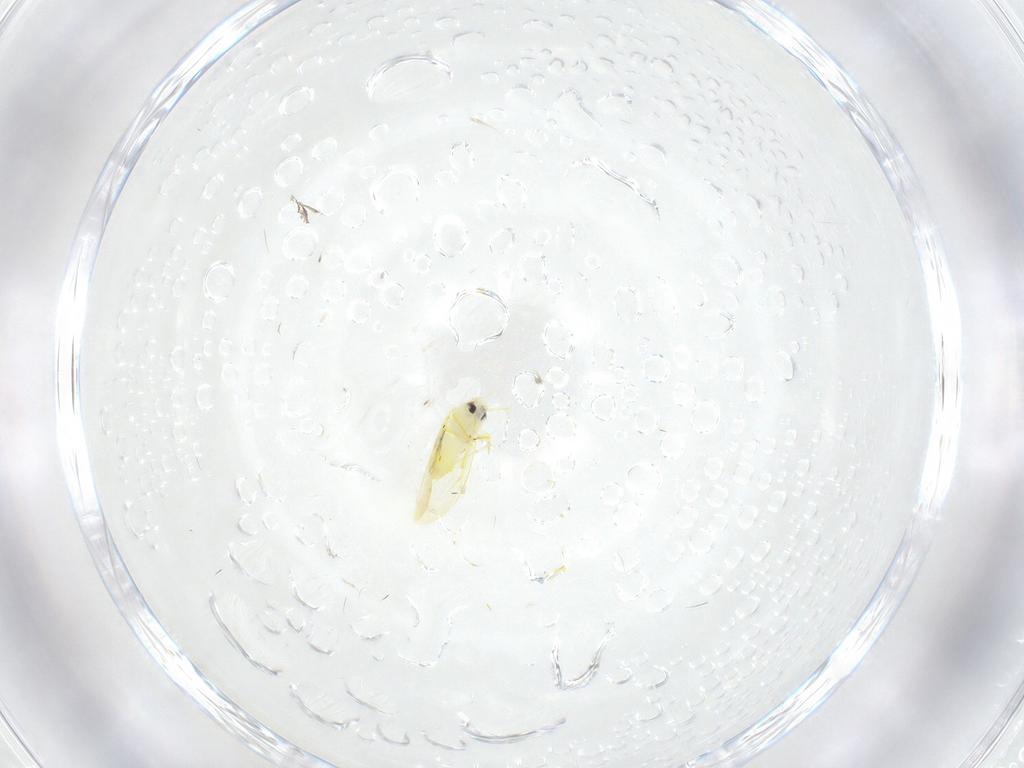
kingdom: Animalia
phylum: Arthropoda
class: Insecta
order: Hemiptera
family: Aleyrodidae
